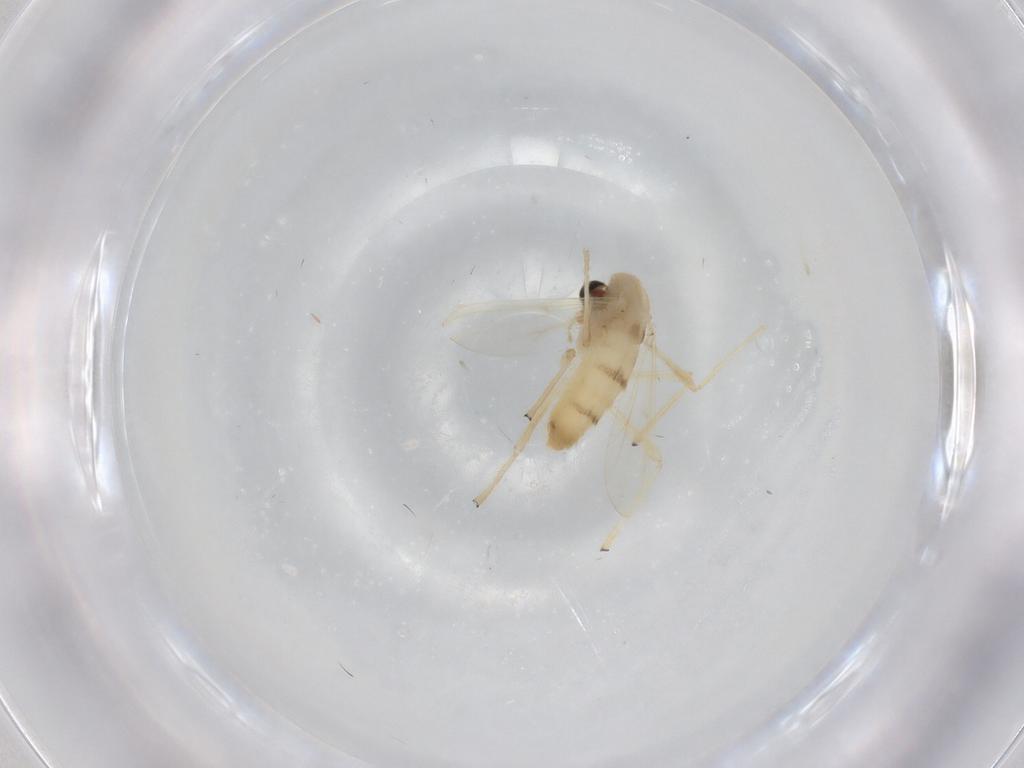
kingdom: Animalia
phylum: Arthropoda
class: Insecta
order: Diptera
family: Chironomidae
